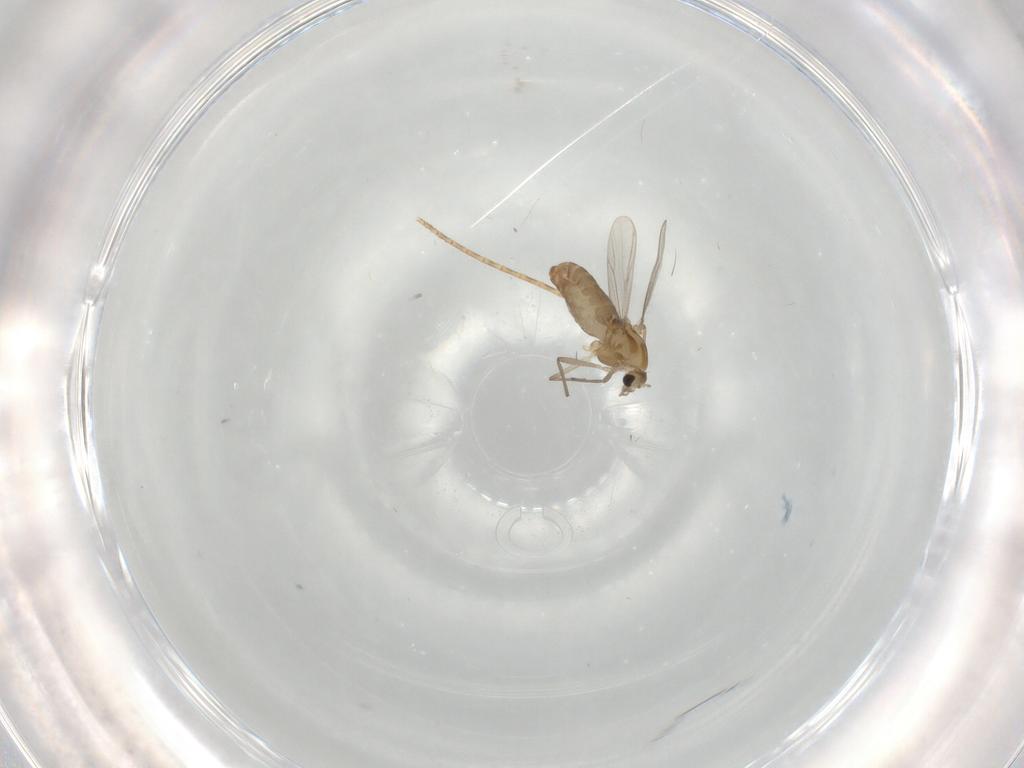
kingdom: Animalia
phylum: Arthropoda
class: Insecta
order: Diptera
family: Chironomidae
